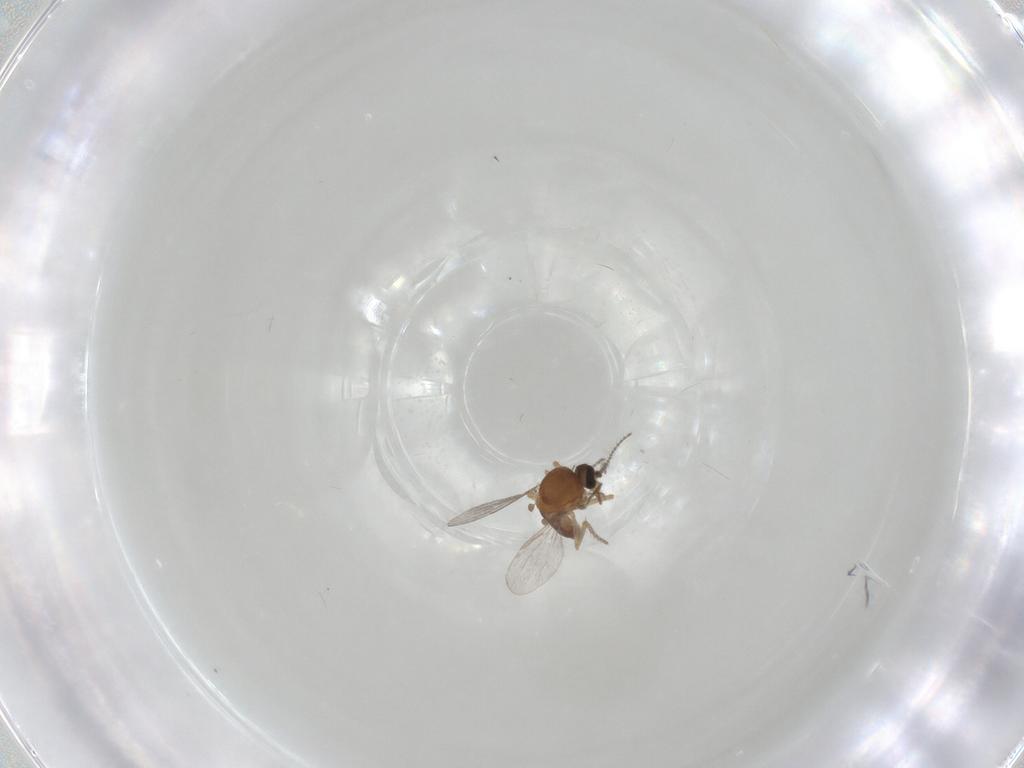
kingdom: Animalia
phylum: Arthropoda
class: Insecta
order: Diptera
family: Ceratopogonidae
